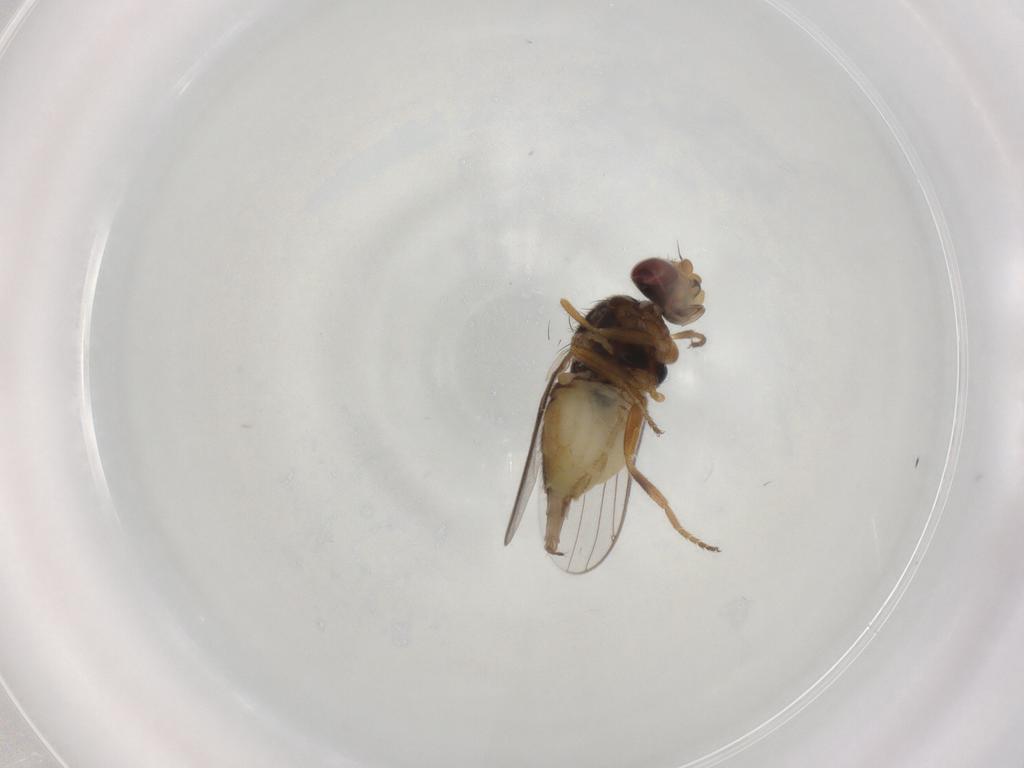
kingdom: Animalia
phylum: Arthropoda
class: Insecta
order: Diptera
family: Chloropidae
